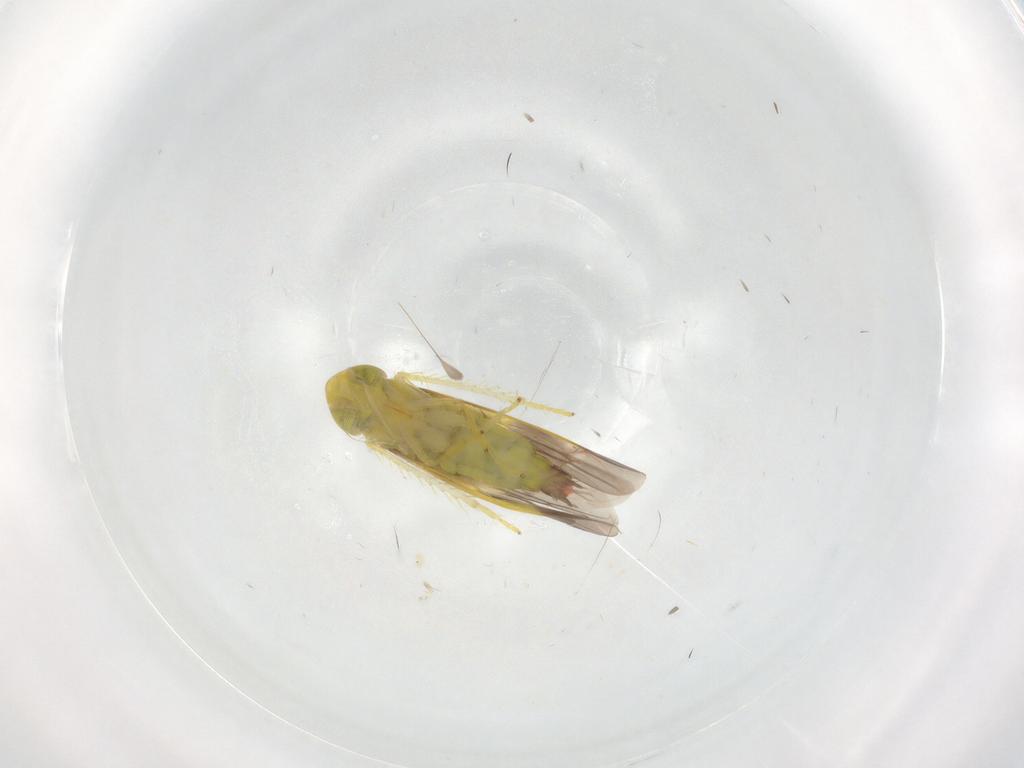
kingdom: Animalia
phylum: Arthropoda
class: Insecta
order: Hemiptera
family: Cicadellidae
